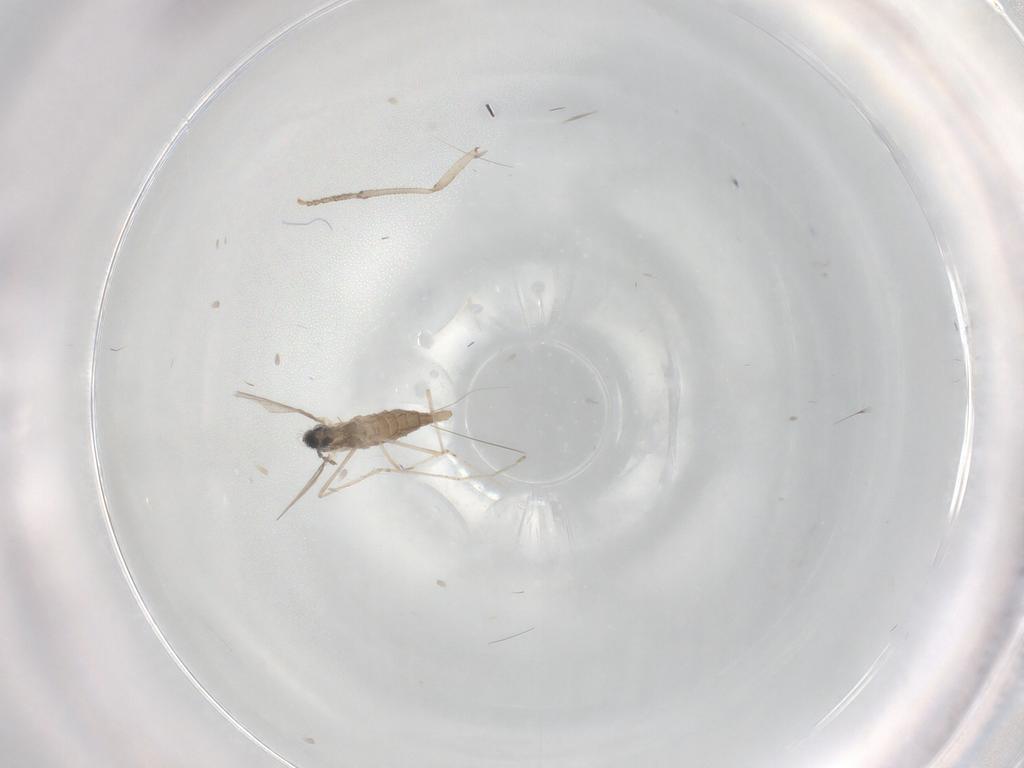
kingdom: Animalia
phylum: Arthropoda
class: Insecta
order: Diptera
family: Psychodidae
